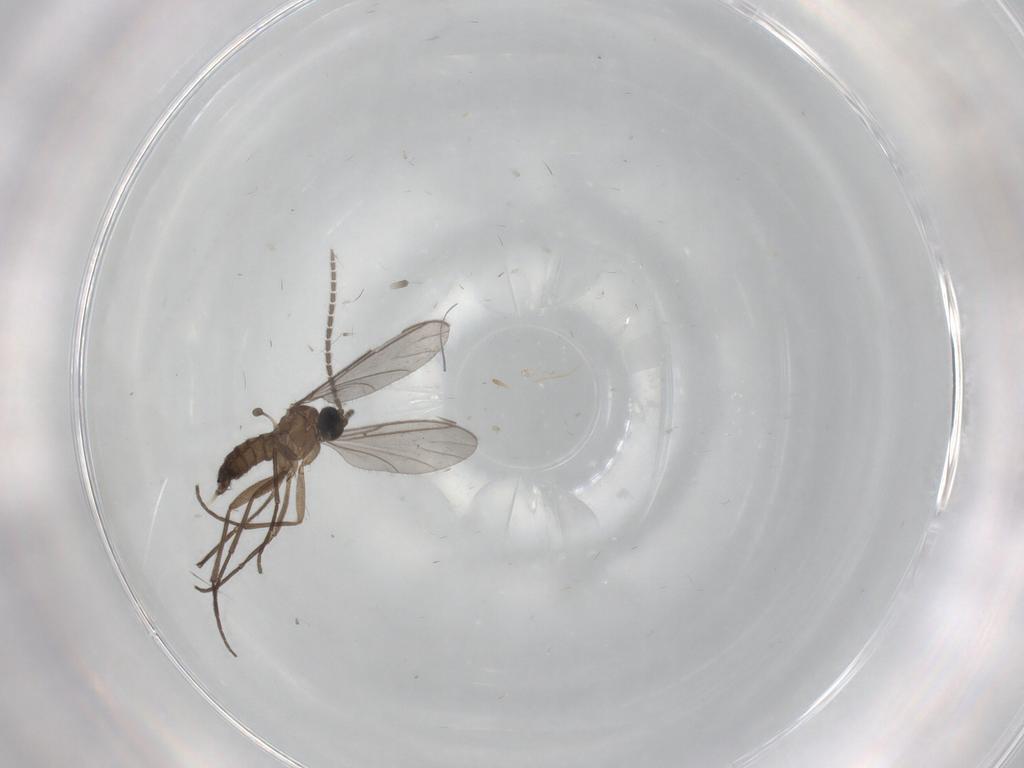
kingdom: Animalia
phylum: Arthropoda
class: Insecta
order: Diptera
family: Sciaridae
